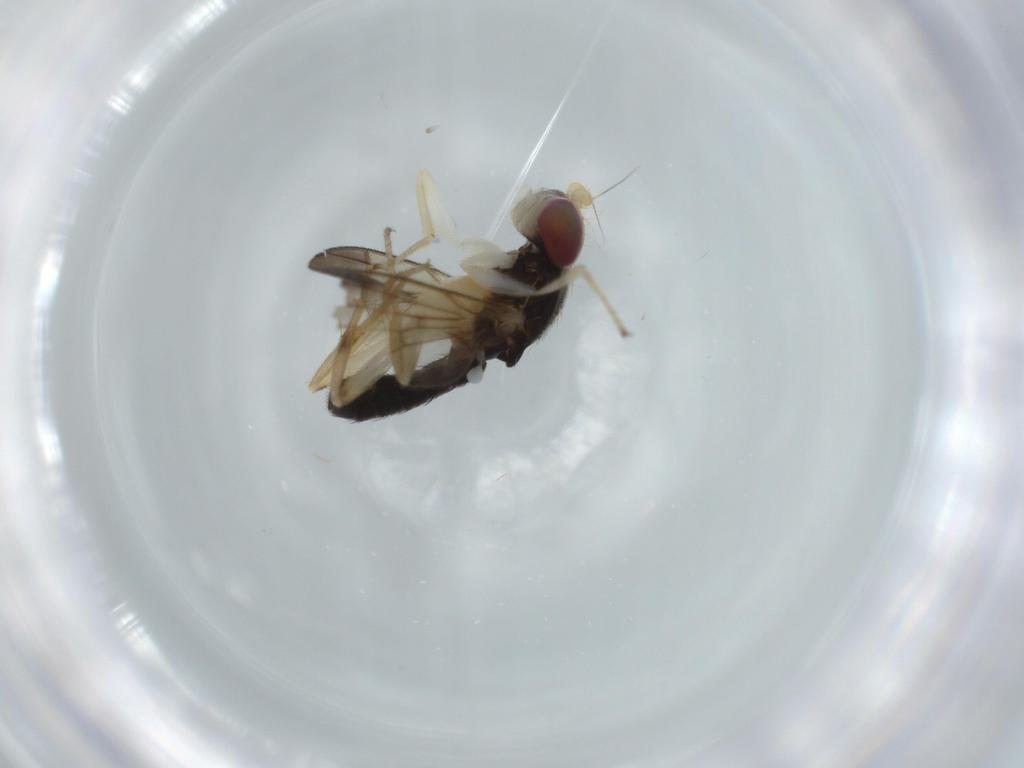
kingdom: Animalia
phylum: Arthropoda
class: Insecta
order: Diptera
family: Clusiidae
